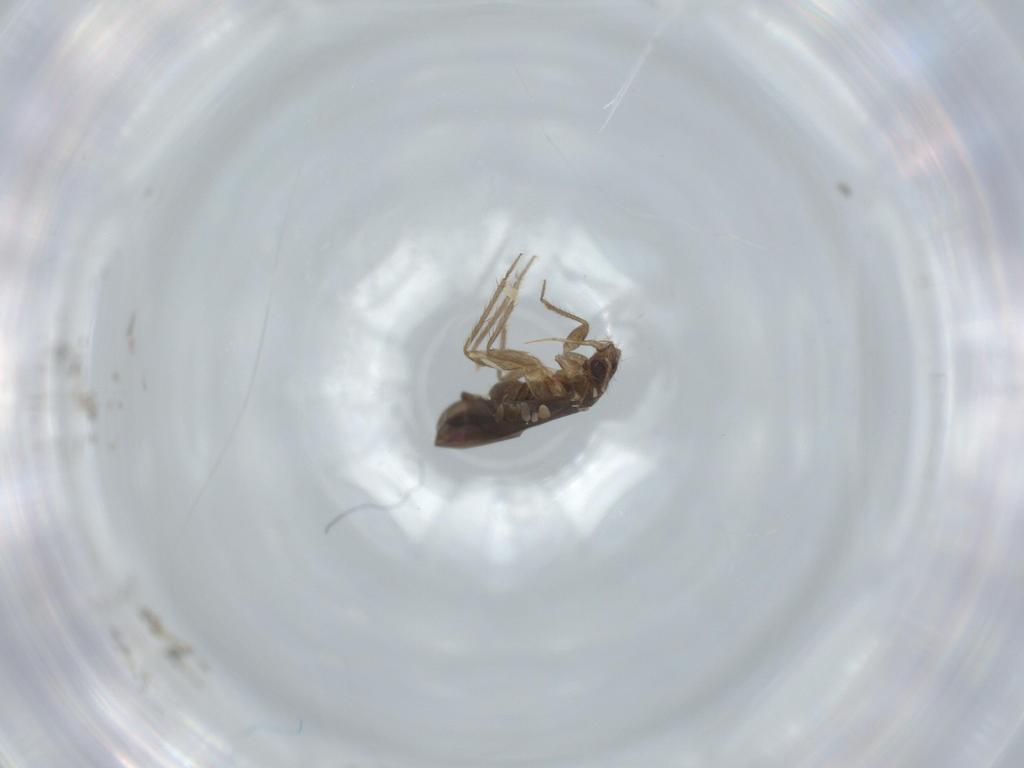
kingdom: Animalia
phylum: Arthropoda
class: Insecta
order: Hemiptera
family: Ceratocombidae
